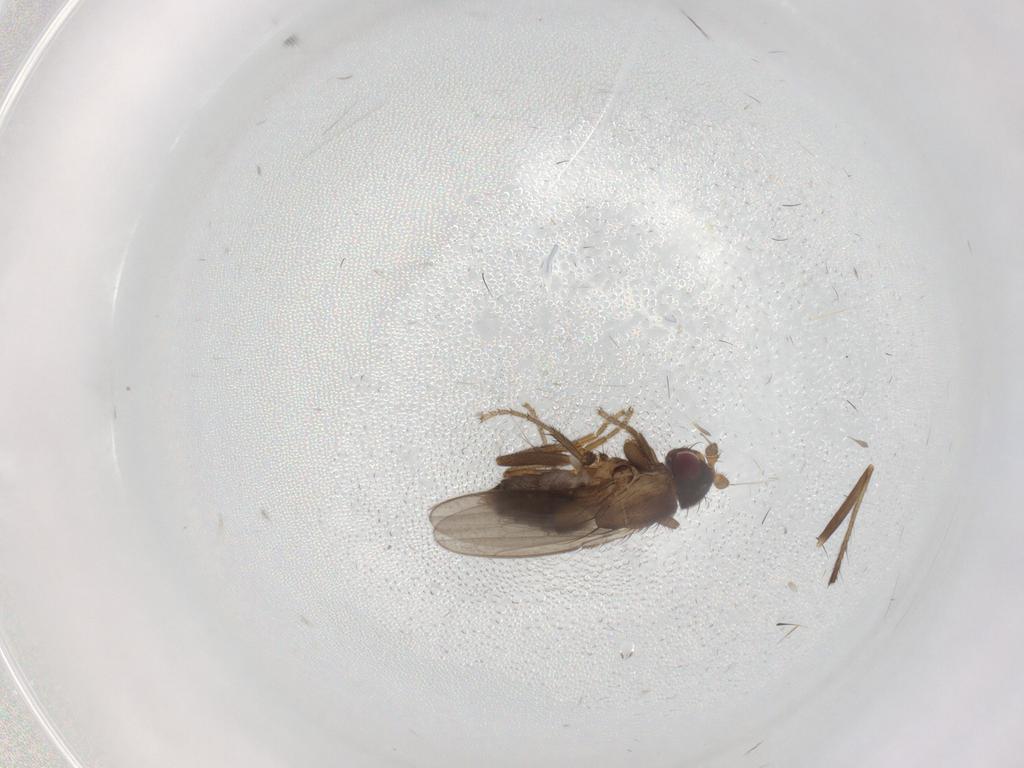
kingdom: Animalia
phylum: Arthropoda
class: Insecta
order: Diptera
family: Chironomidae
